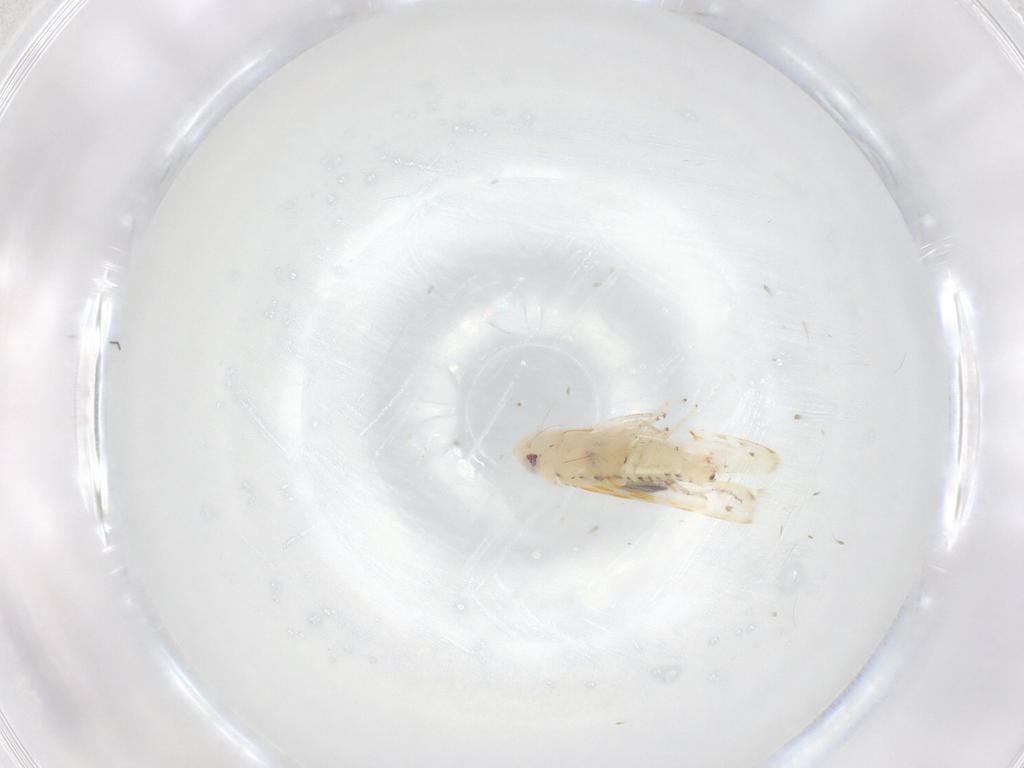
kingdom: Animalia
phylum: Arthropoda
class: Insecta
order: Hemiptera
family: Cicadellidae
